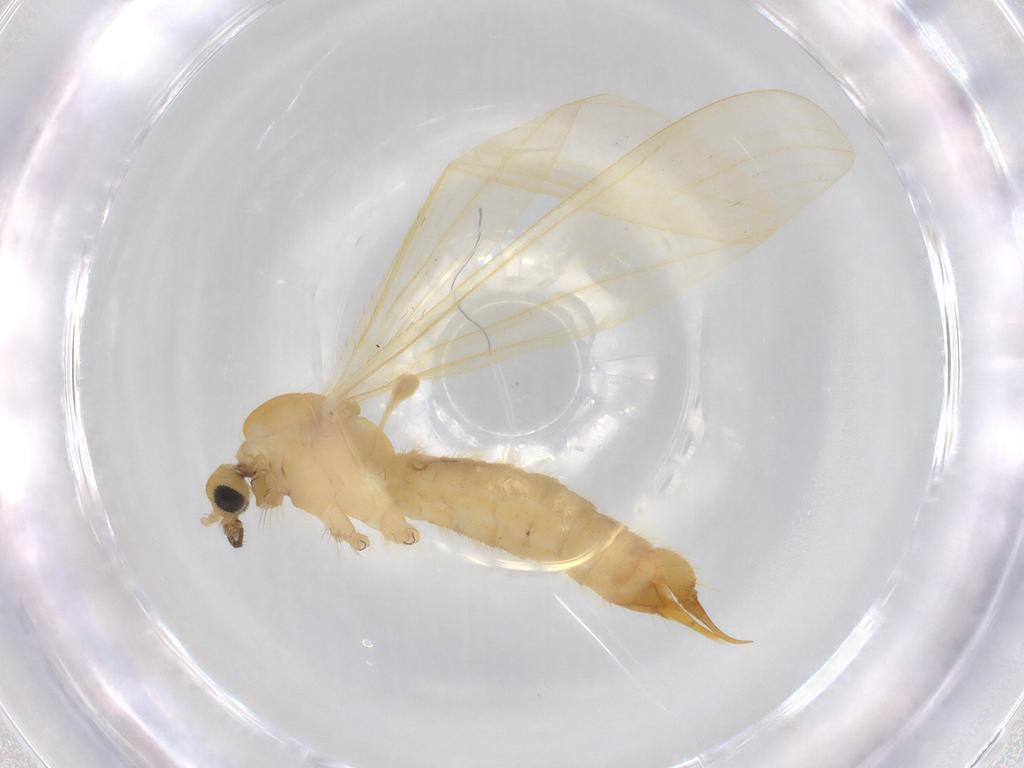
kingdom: Animalia
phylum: Arthropoda
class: Insecta
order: Diptera
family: Limoniidae
